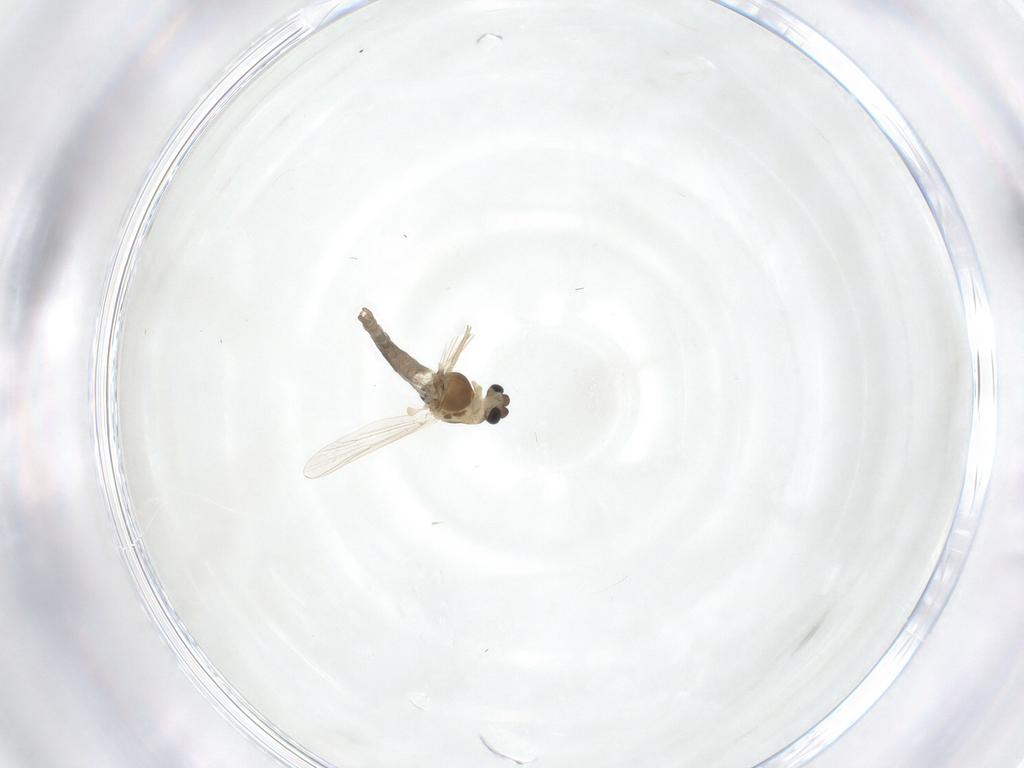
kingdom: Animalia
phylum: Arthropoda
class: Insecta
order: Diptera
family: Chironomidae
